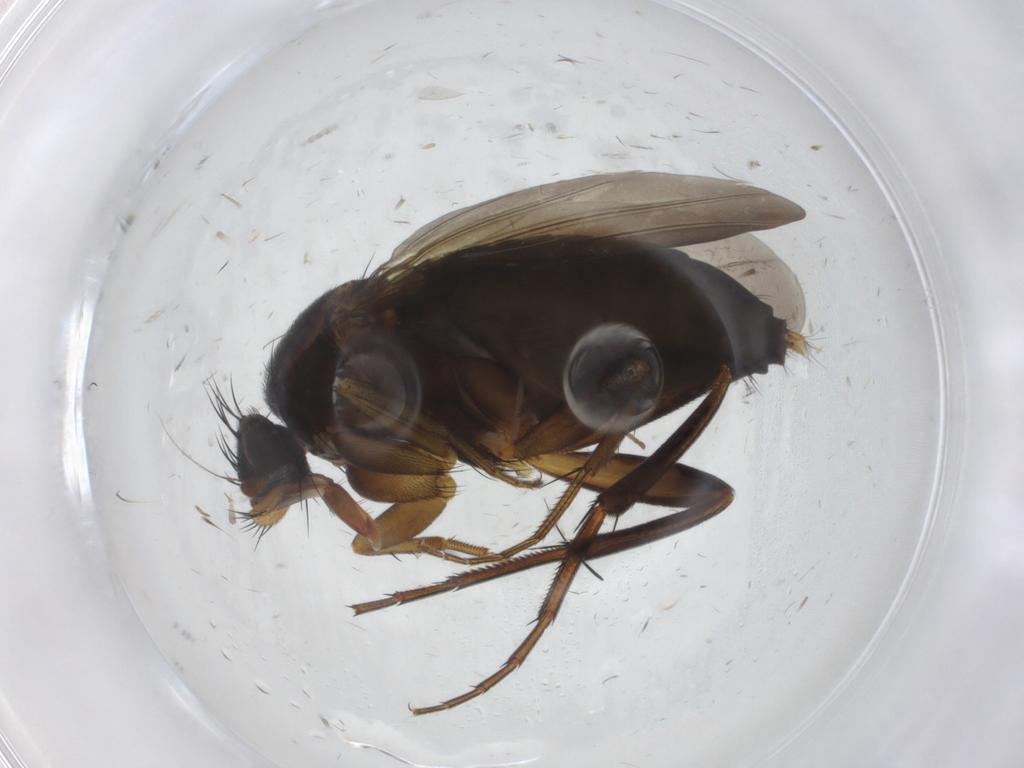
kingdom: Animalia
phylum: Arthropoda
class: Insecta
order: Diptera
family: Phoridae
